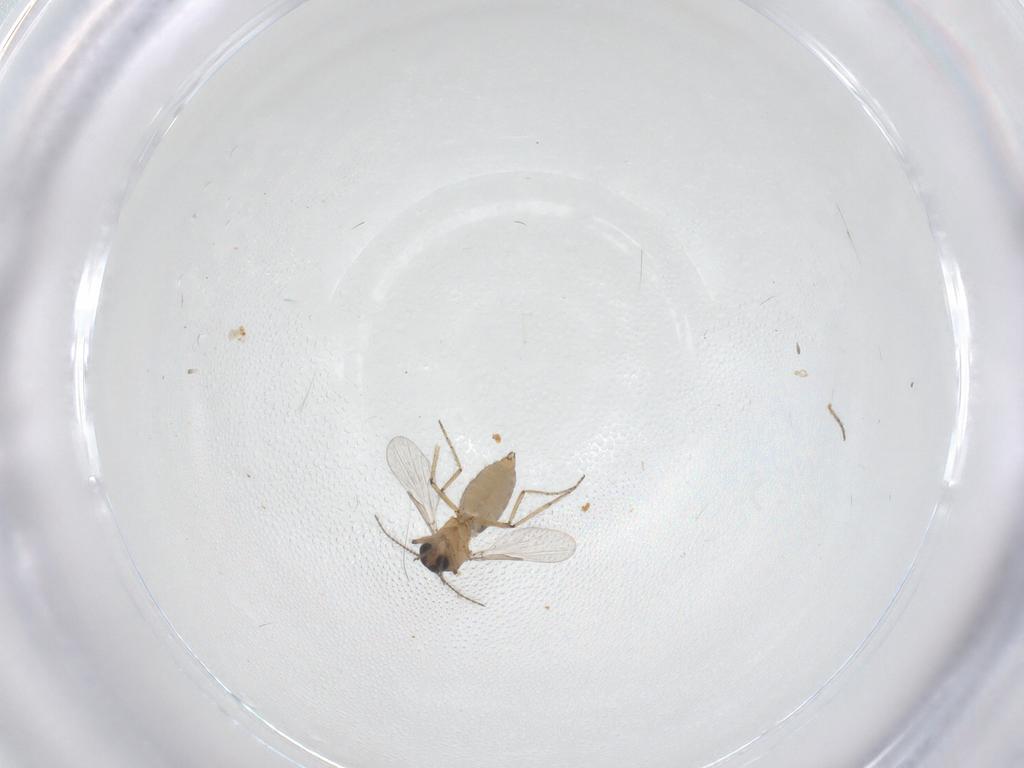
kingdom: Animalia
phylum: Arthropoda
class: Insecta
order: Diptera
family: Ceratopogonidae
